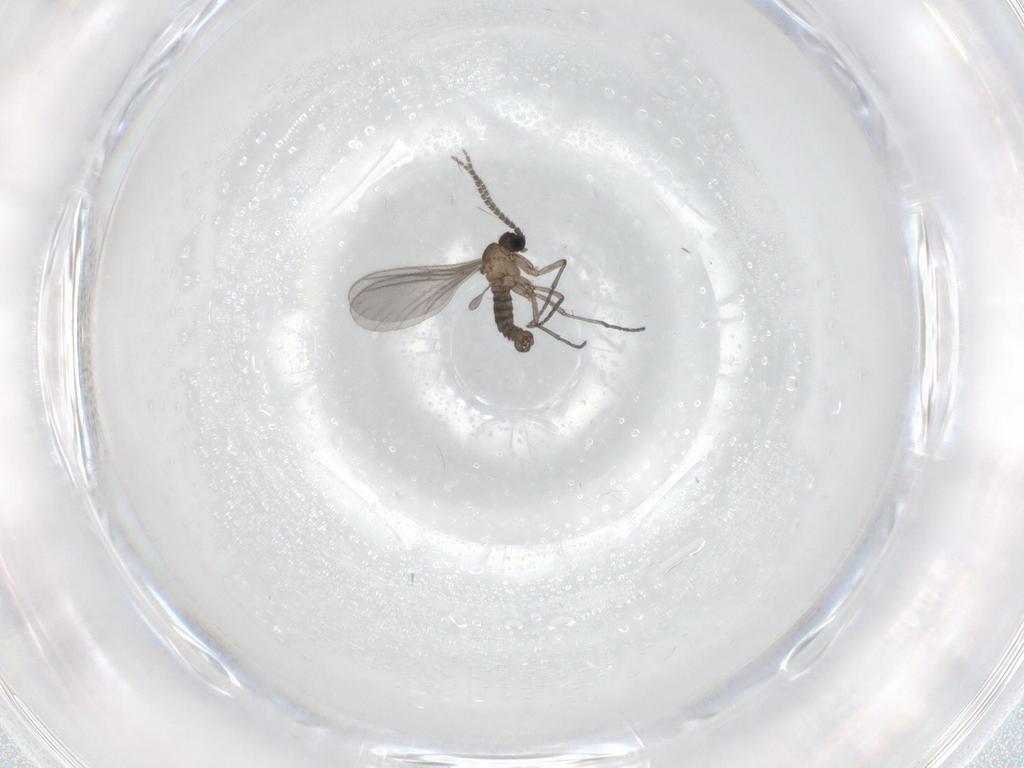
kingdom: Animalia
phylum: Arthropoda
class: Insecta
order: Diptera
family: Sciaridae
